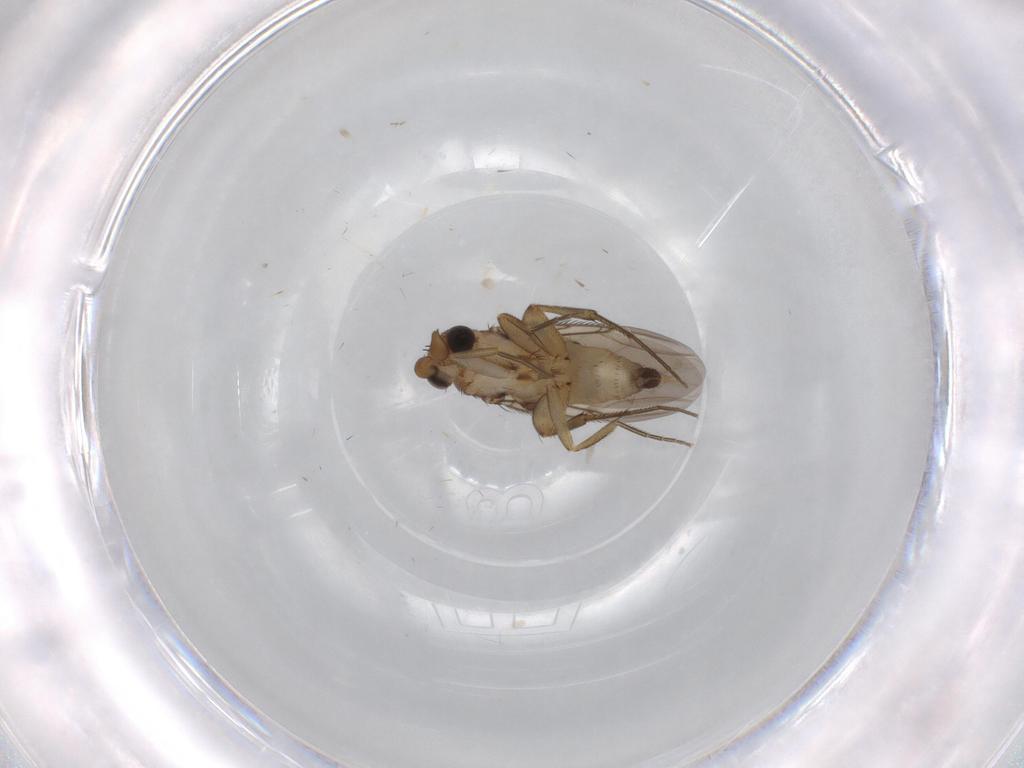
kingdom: Animalia
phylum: Arthropoda
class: Insecta
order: Diptera
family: Phoridae
